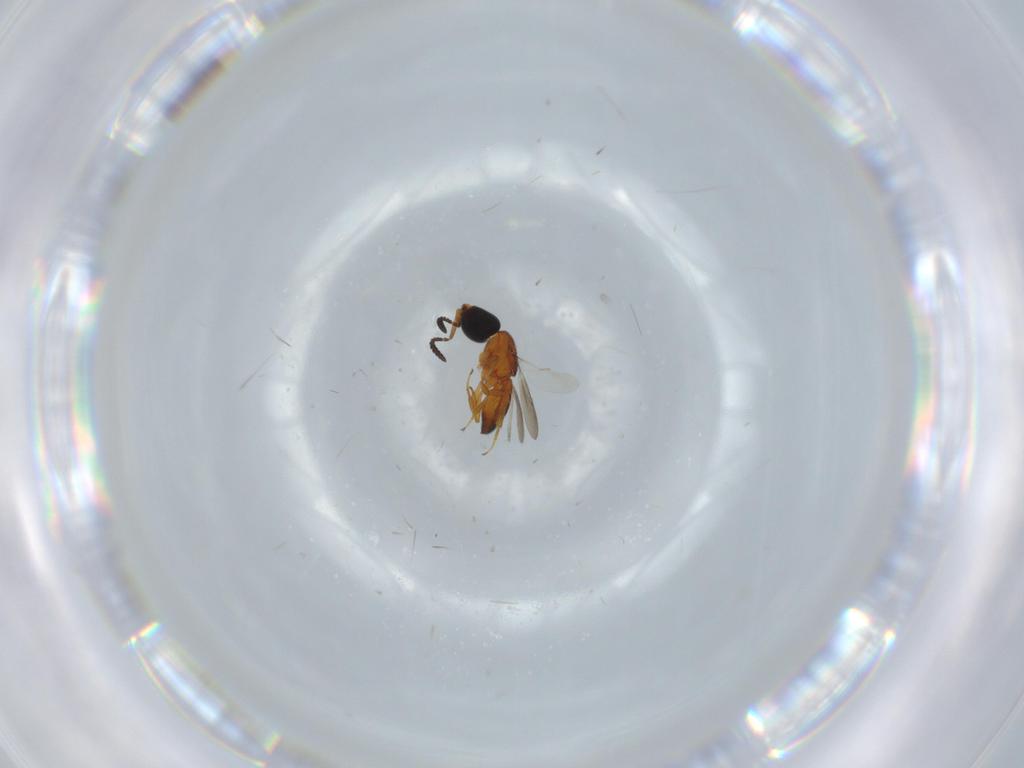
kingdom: Animalia
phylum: Arthropoda
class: Insecta
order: Hymenoptera
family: Scelionidae
